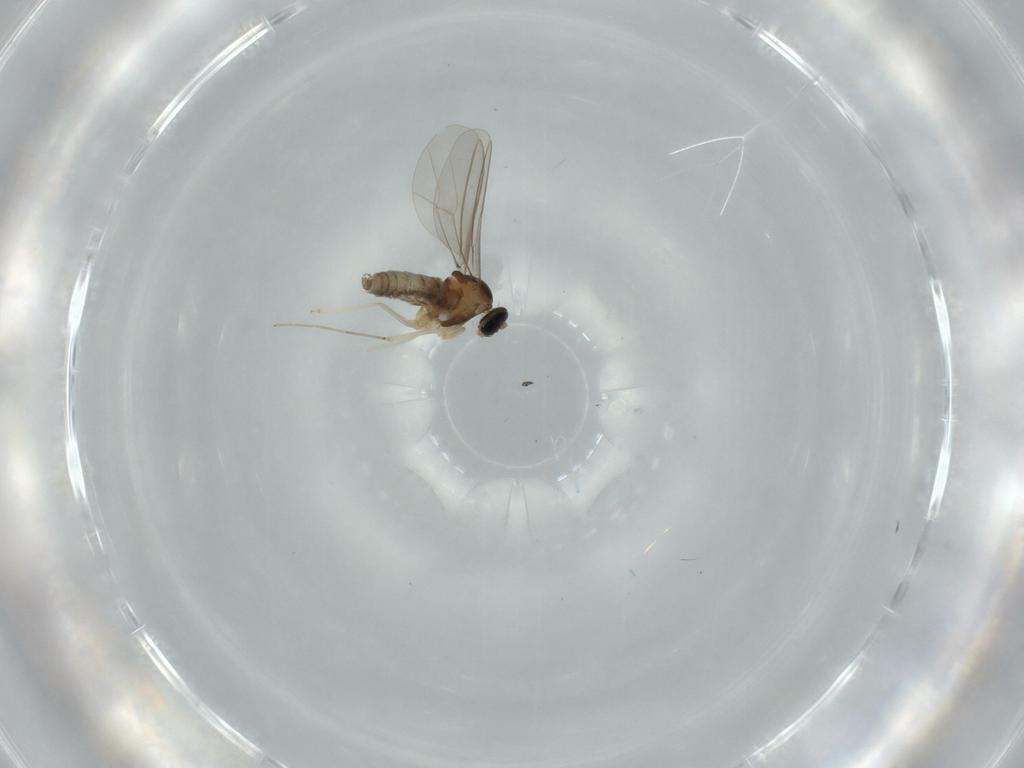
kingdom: Animalia
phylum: Arthropoda
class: Insecta
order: Diptera
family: Cecidomyiidae
